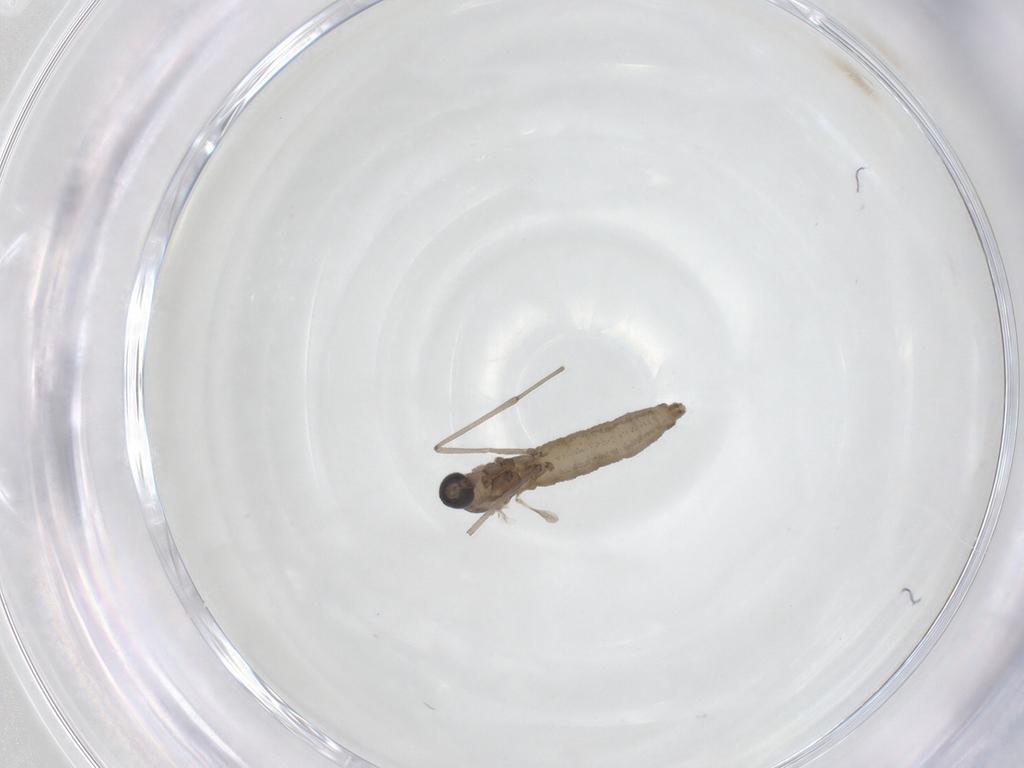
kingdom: Animalia
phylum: Arthropoda
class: Insecta
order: Diptera
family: Cecidomyiidae
